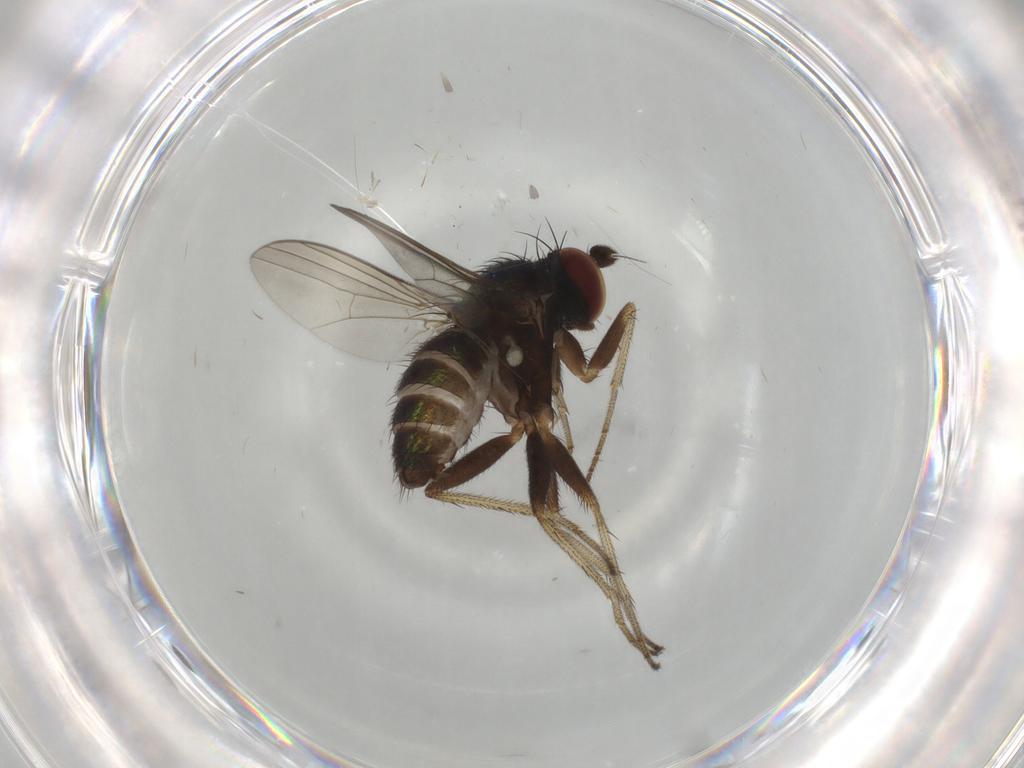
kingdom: Animalia
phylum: Arthropoda
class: Insecta
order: Diptera
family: Dolichopodidae
